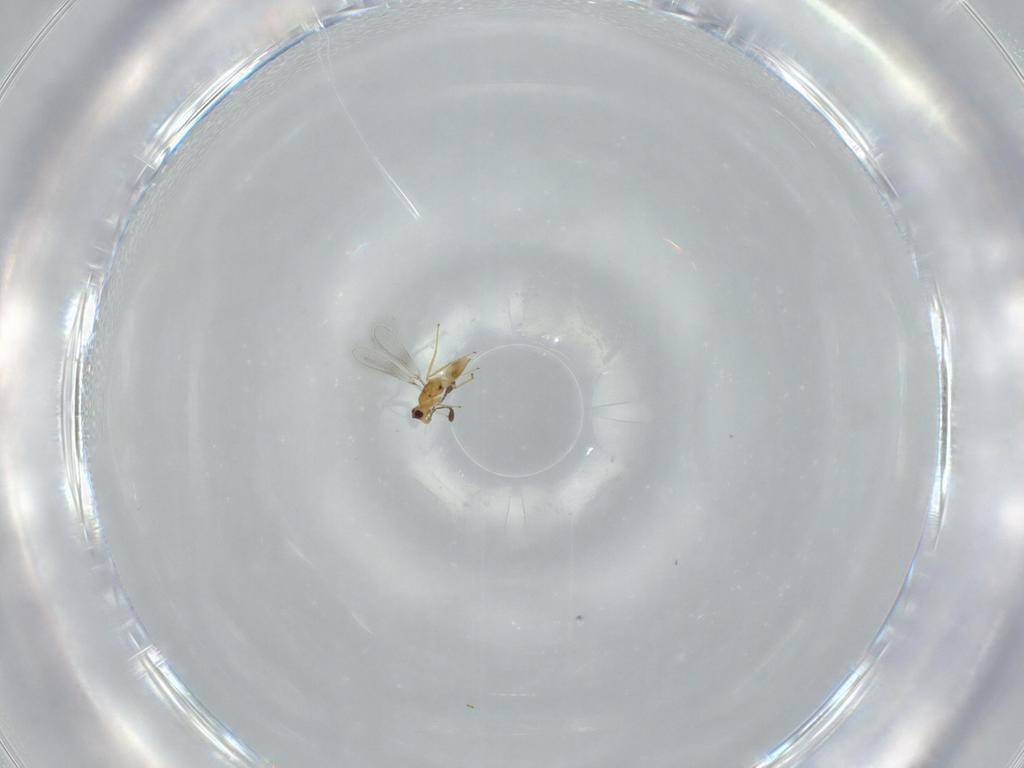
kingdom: Animalia
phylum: Arthropoda
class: Insecta
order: Hymenoptera
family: Mymaridae
